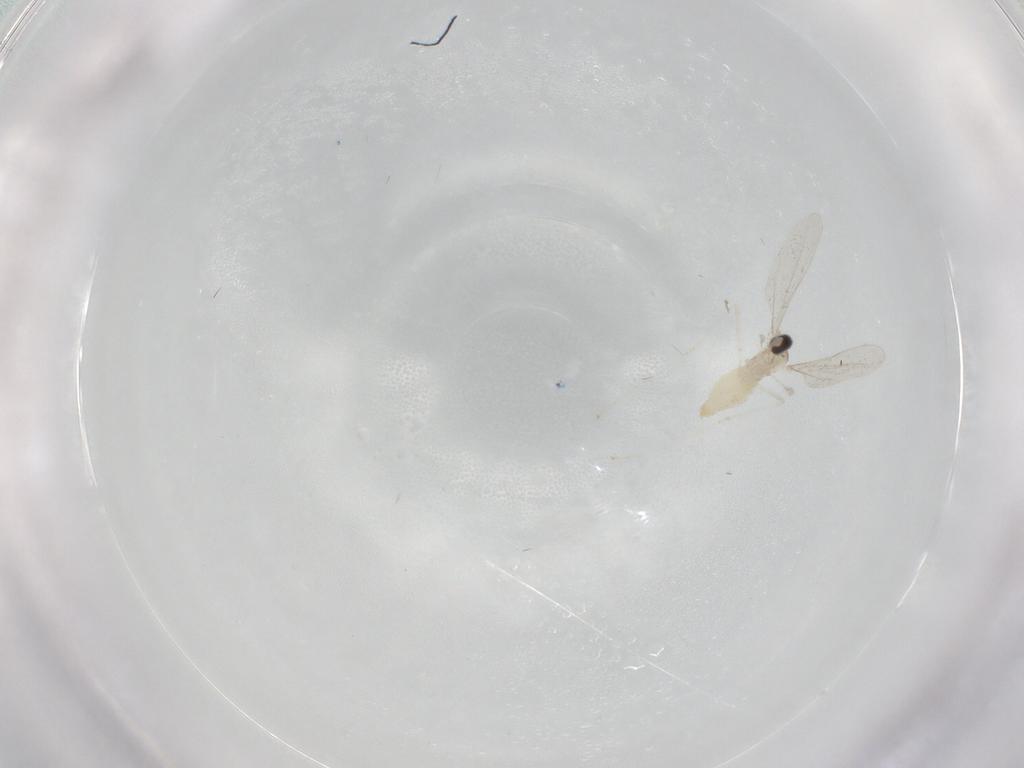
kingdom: Animalia
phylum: Arthropoda
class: Insecta
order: Diptera
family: Cecidomyiidae
